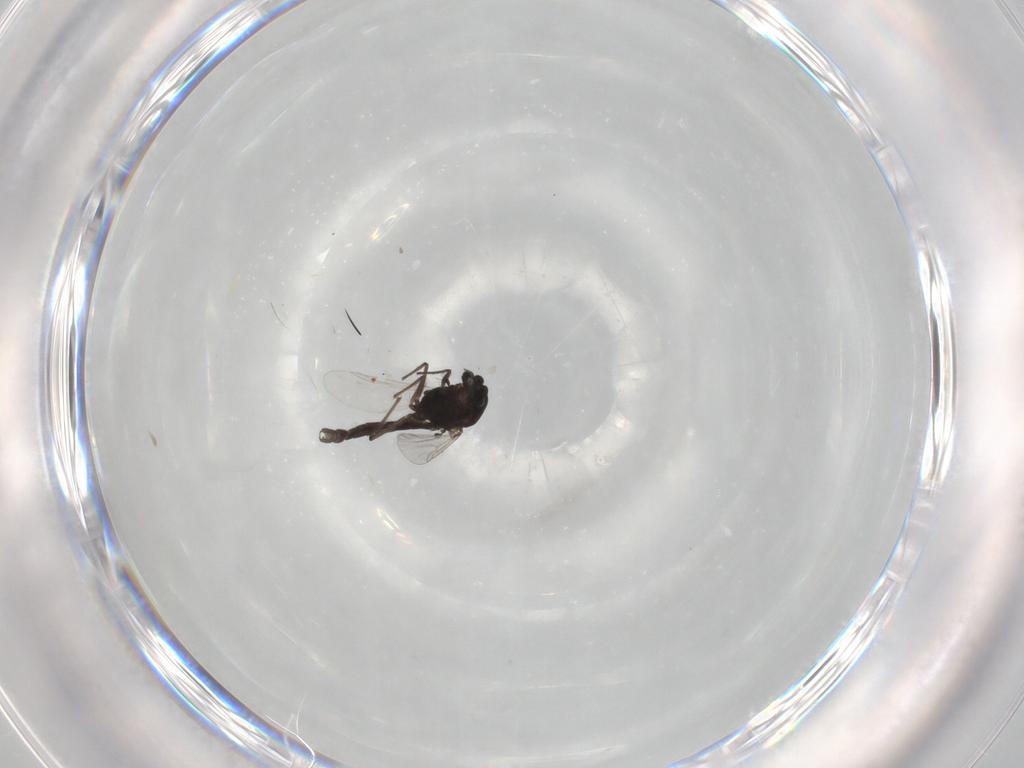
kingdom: Animalia
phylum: Arthropoda
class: Insecta
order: Diptera
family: Chironomidae
